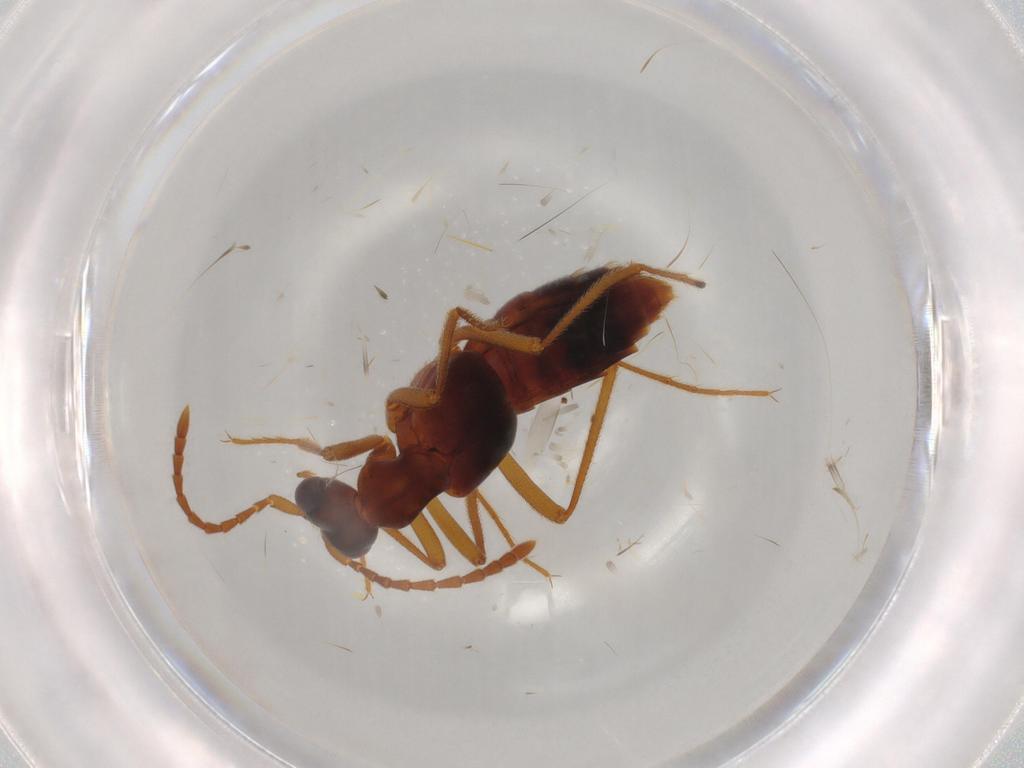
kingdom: Animalia
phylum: Arthropoda
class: Insecta
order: Coleoptera
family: Staphylinidae
